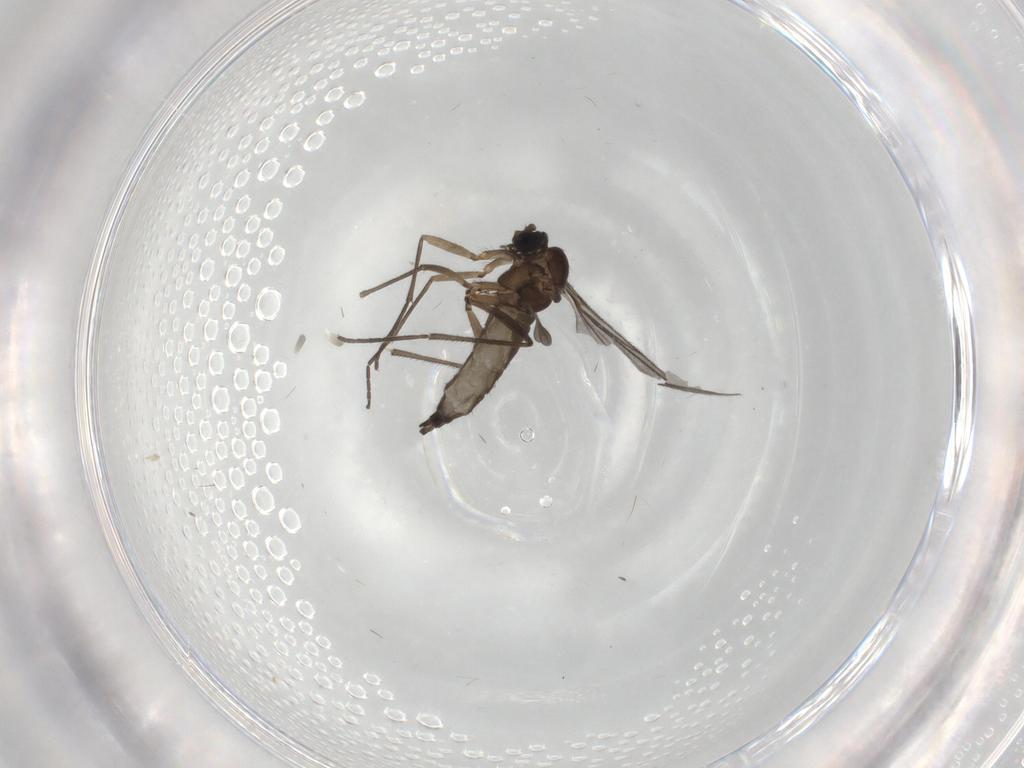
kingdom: Animalia
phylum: Arthropoda
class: Insecta
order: Diptera
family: Sciaridae
